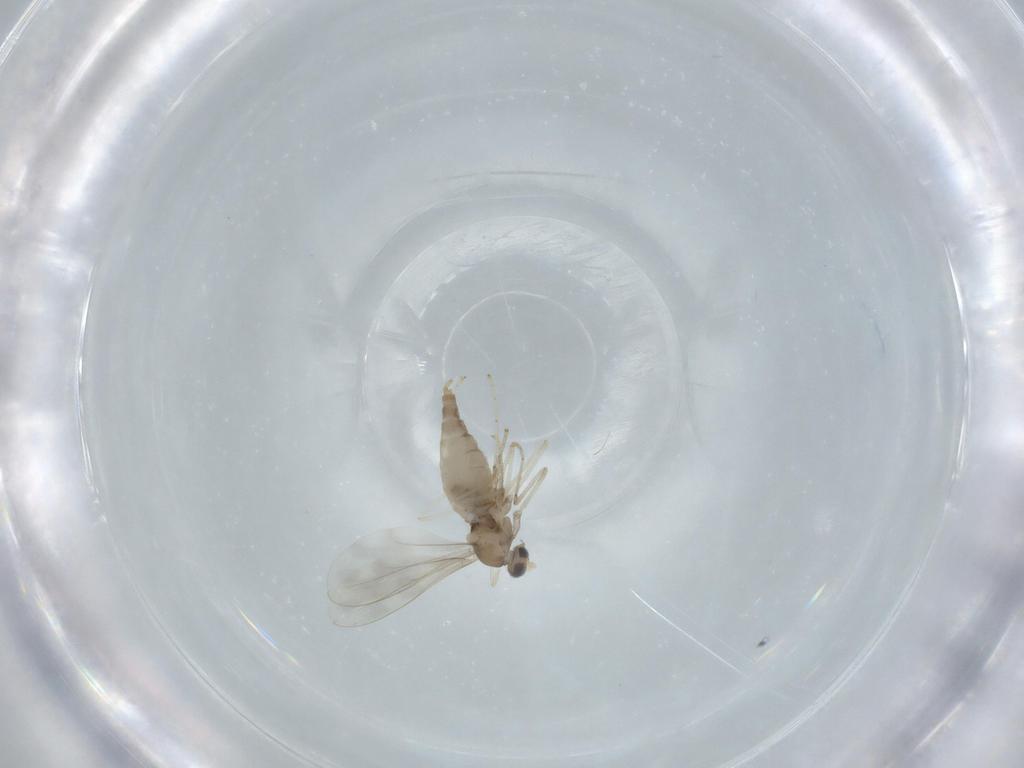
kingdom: Animalia
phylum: Arthropoda
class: Insecta
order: Diptera
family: Cecidomyiidae
